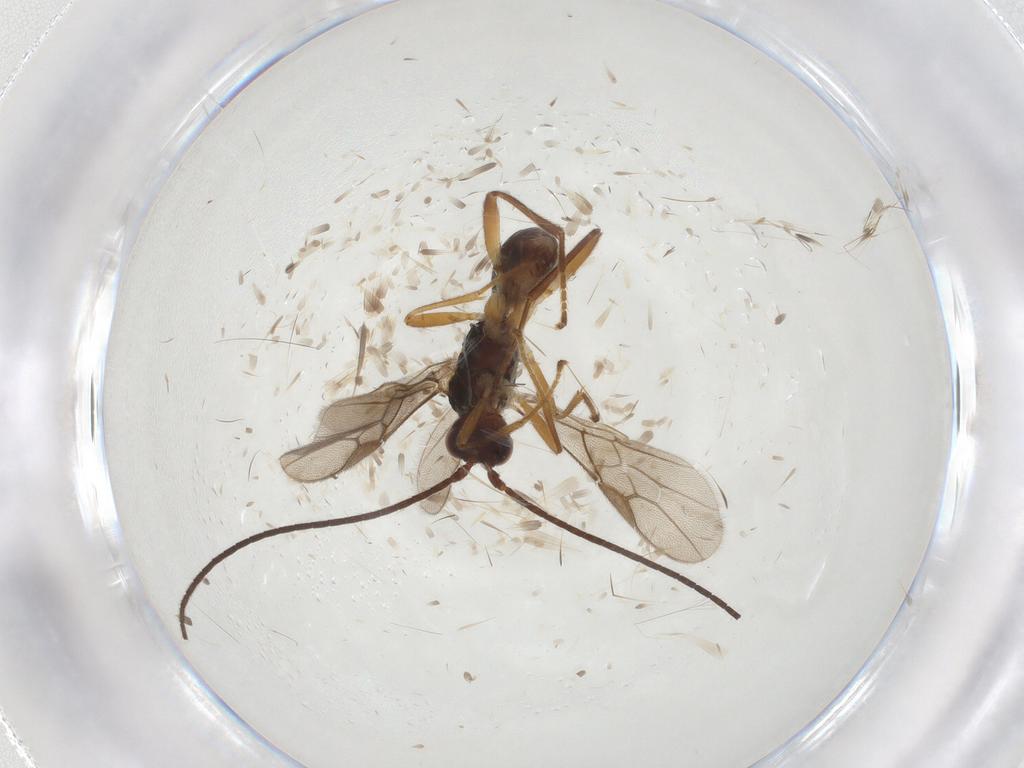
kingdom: Animalia
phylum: Arthropoda
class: Insecta
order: Hymenoptera
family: Braconidae
